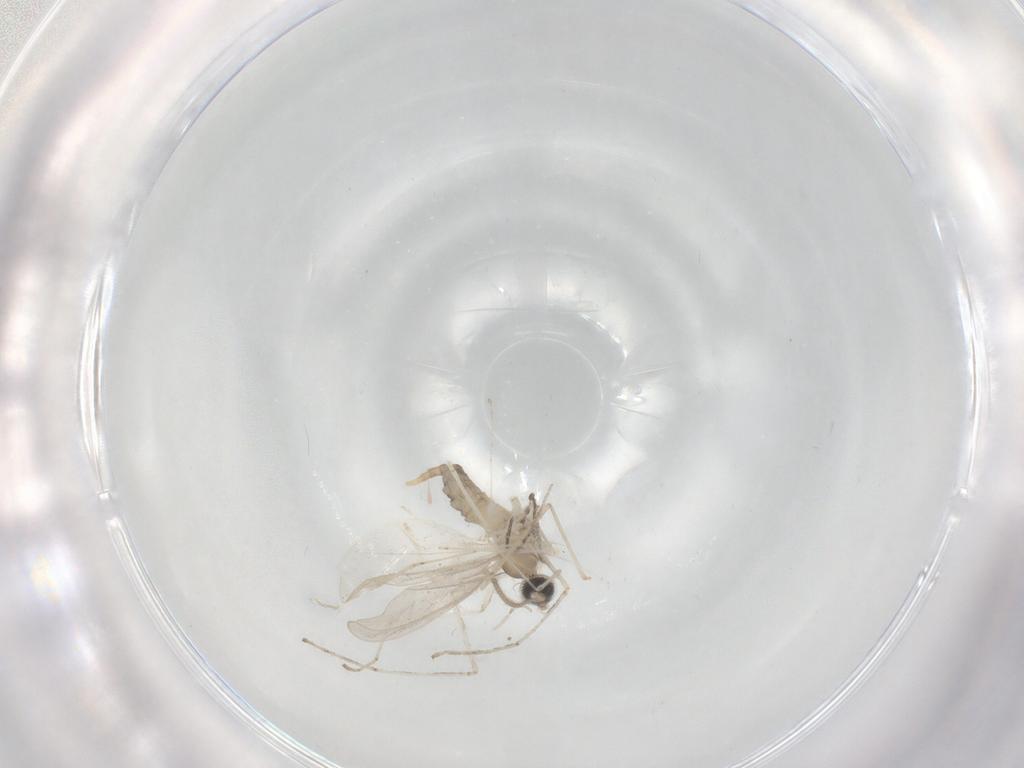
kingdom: Animalia
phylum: Arthropoda
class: Insecta
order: Diptera
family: Cecidomyiidae
